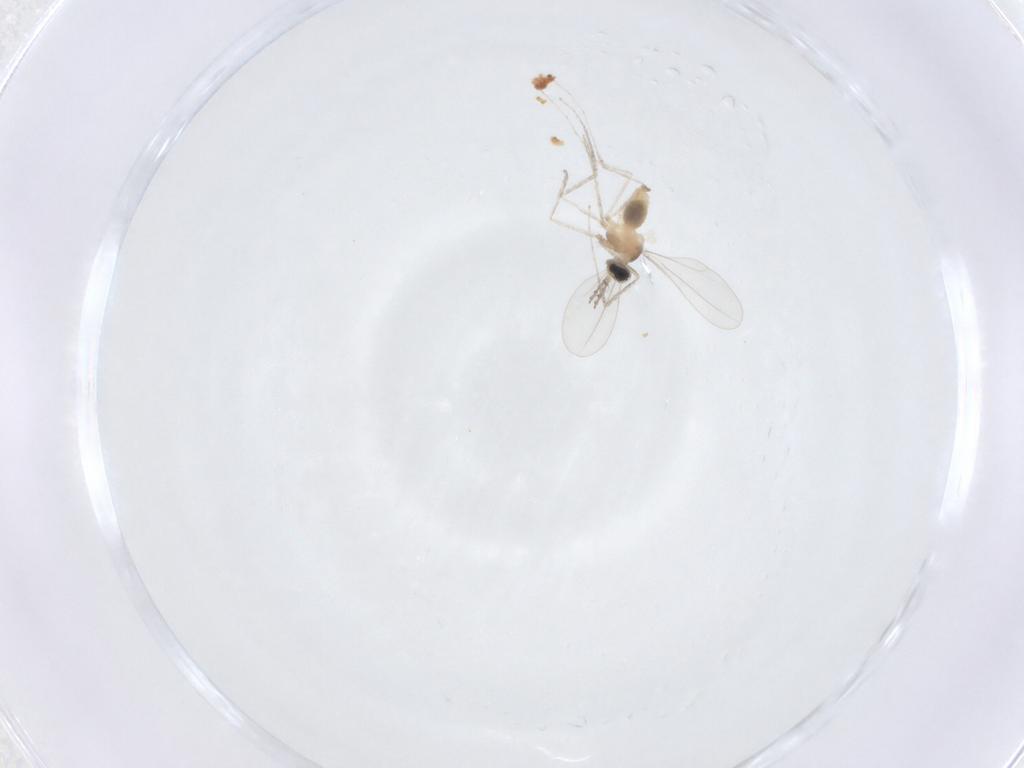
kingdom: Animalia
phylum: Arthropoda
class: Insecta
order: Diptera
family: Cecidomyiidae
